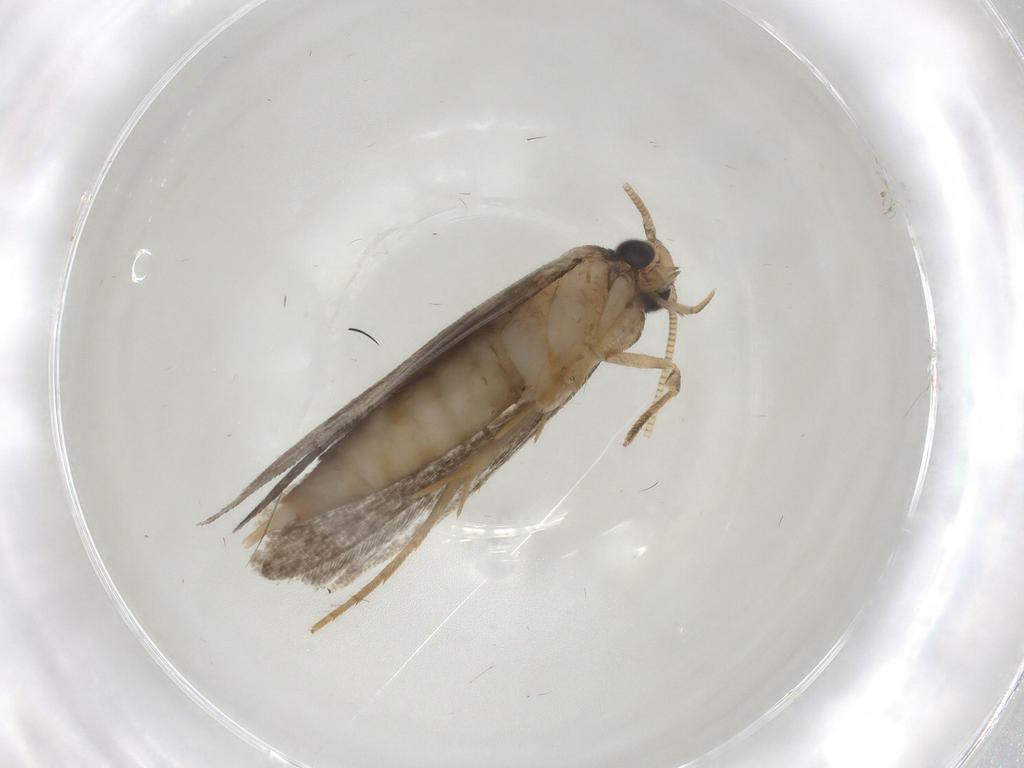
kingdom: Animalia
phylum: Arthropoda
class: Insecta
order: Lepidoptera
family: Tineidae
